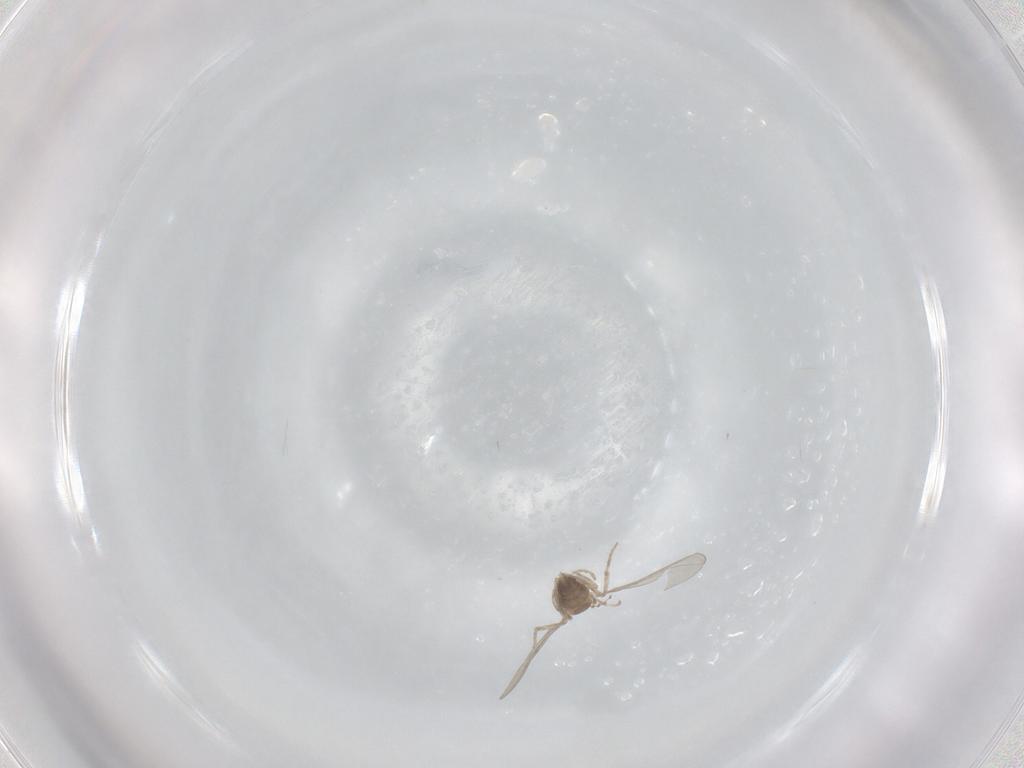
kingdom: Animalia
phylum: Arthropoda
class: Insecta
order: Diptera
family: Ceratopogonidae
